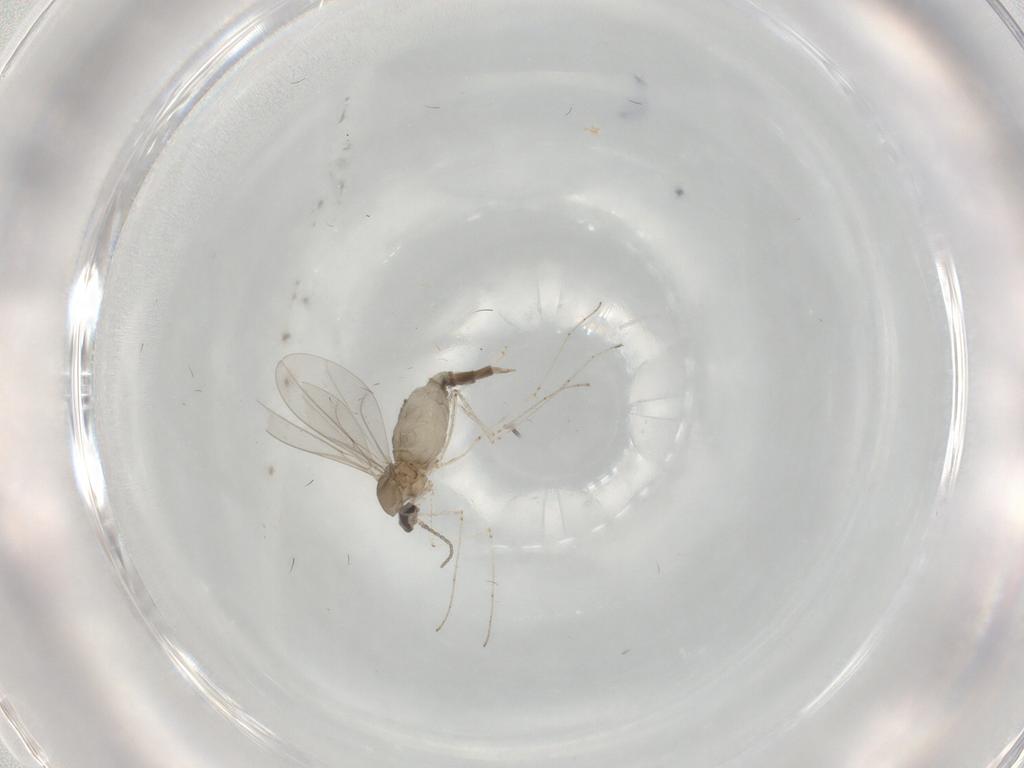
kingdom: Animalia
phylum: Arthropoda
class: Insecta
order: Diptera
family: Cecidomyiidae
